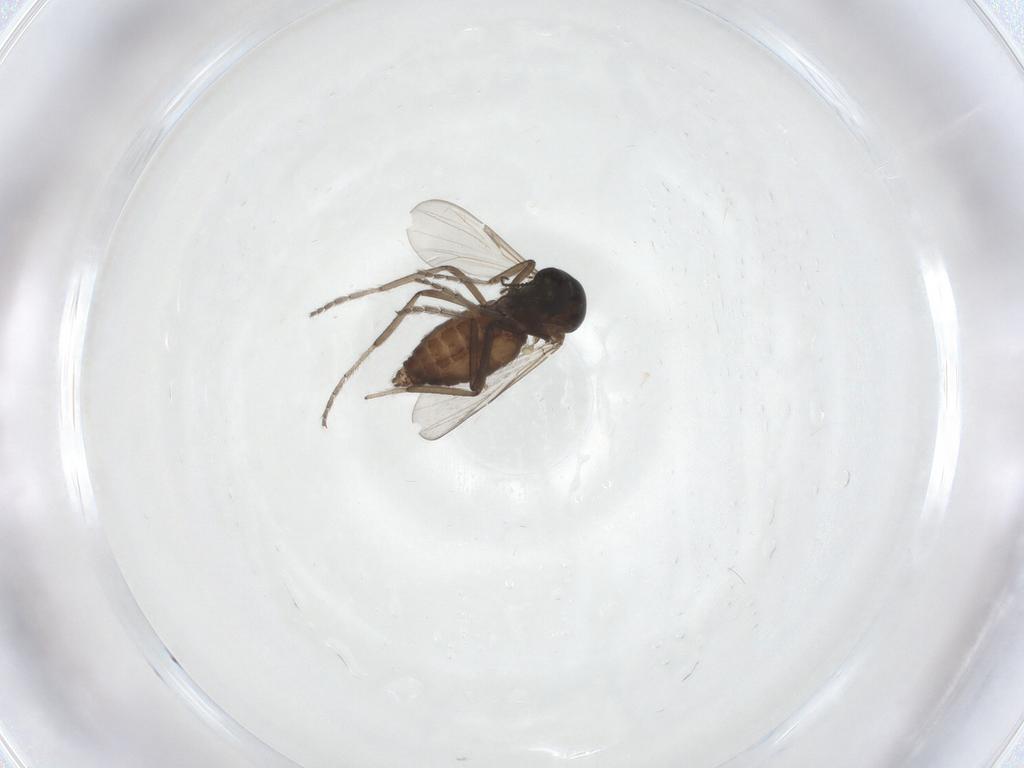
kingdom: Animalia
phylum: Arthropoda
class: Insecta
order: Diptera
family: Ceratopogonidae
